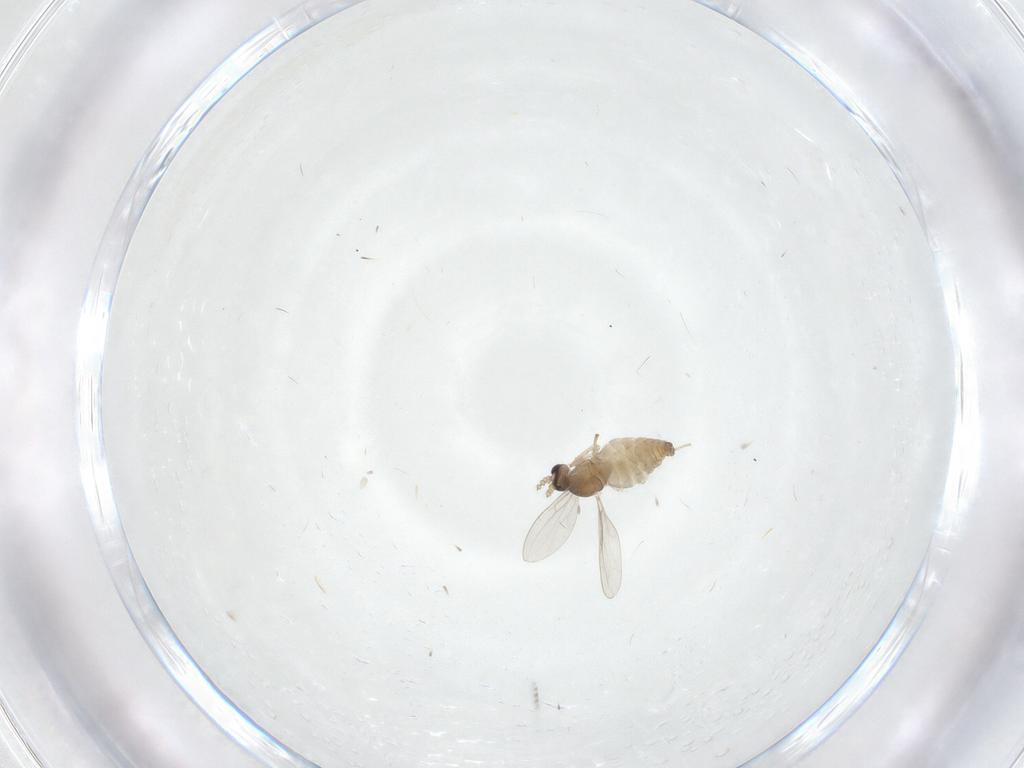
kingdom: Animalia
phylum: Arthropoda
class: Insecta
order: Diptera
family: Cecidomyiidae
